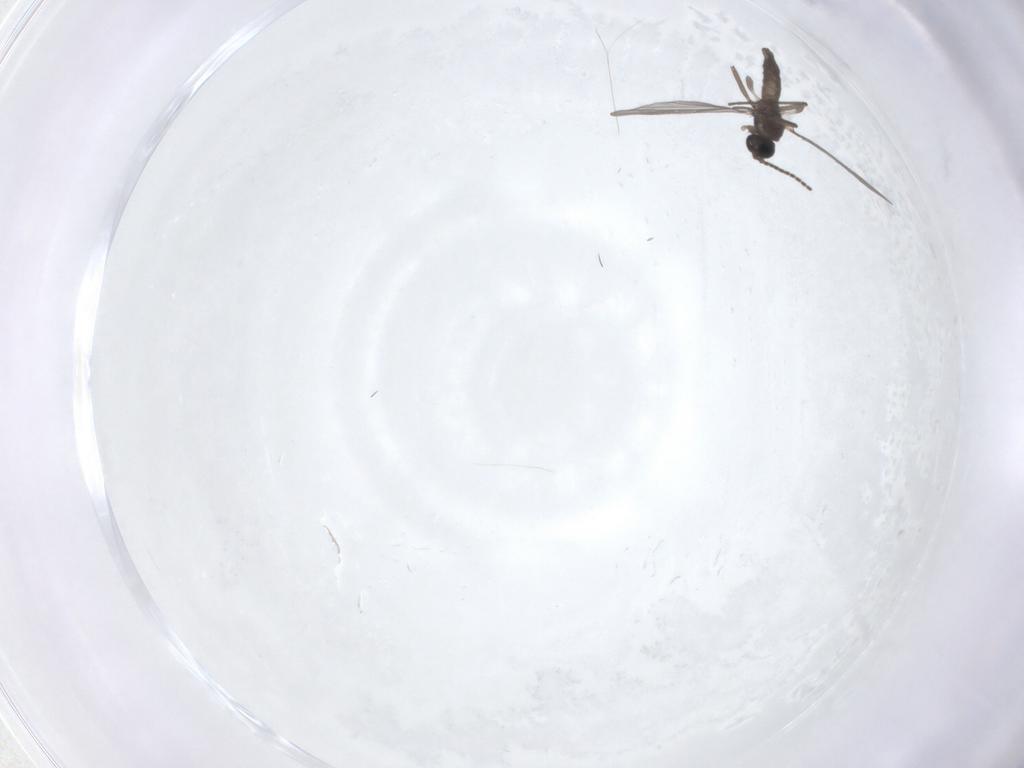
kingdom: Animalia
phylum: Arthropoda
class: Insecta
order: Diptera
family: Sciaridae
